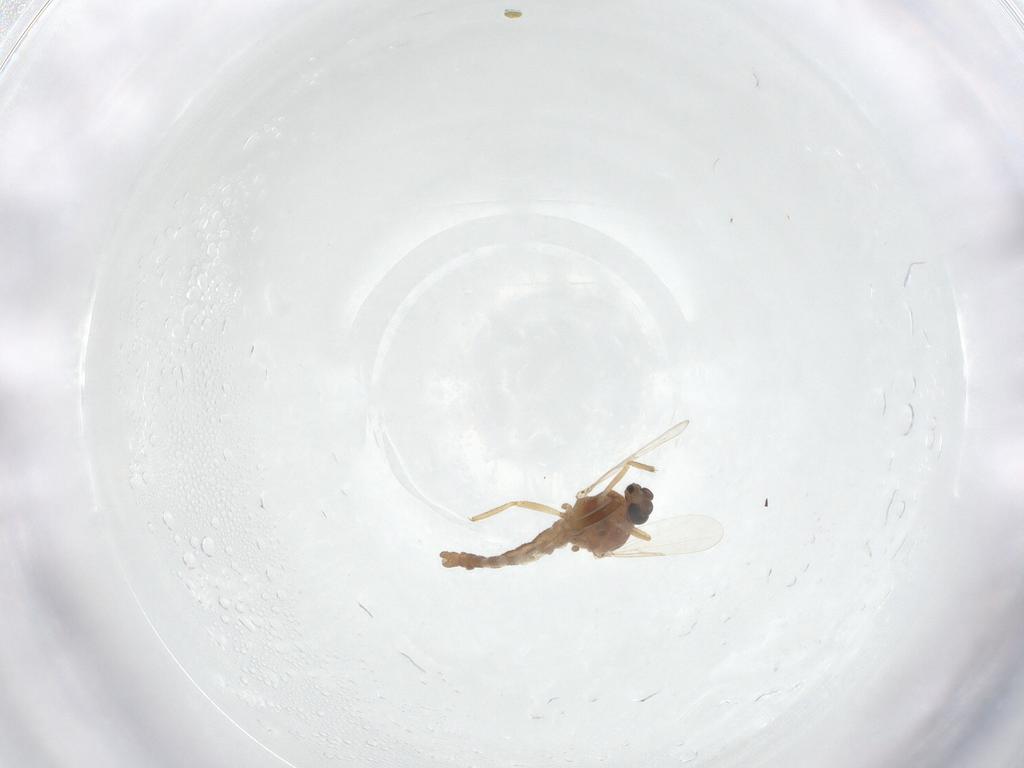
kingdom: Animalia
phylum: Arthropoda
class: Insecta
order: Diptera
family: Ceratopogonidae
